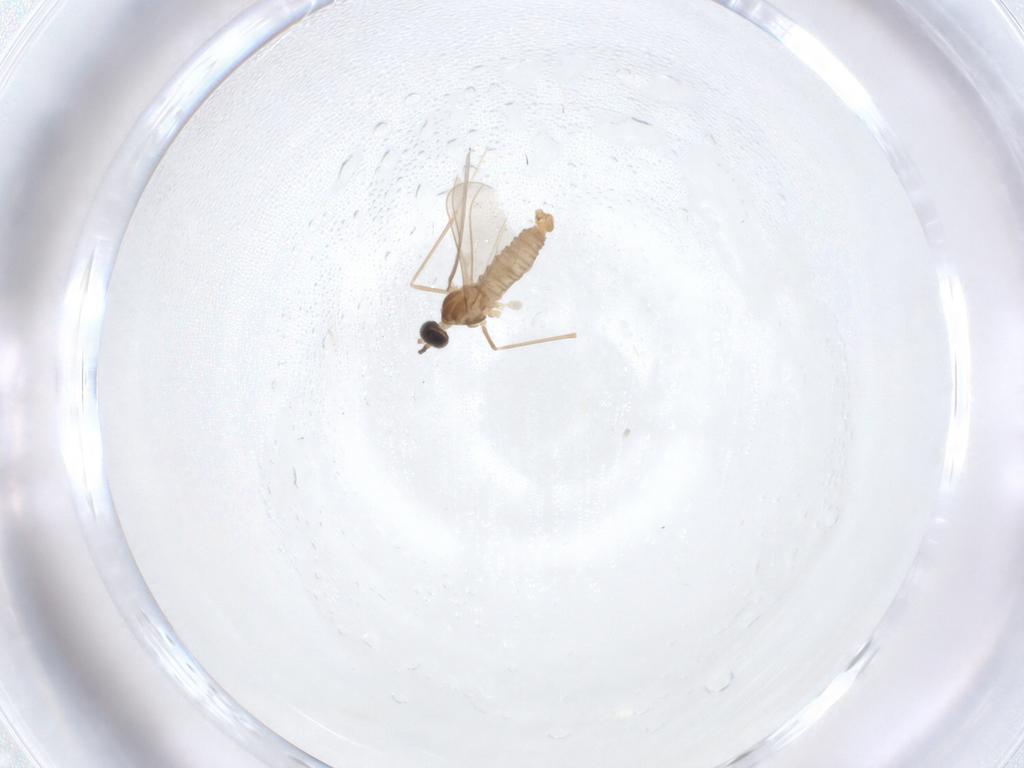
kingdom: Animalia
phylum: Arthropoda
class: Insecta
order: Diptera
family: Cecidomyiidae
